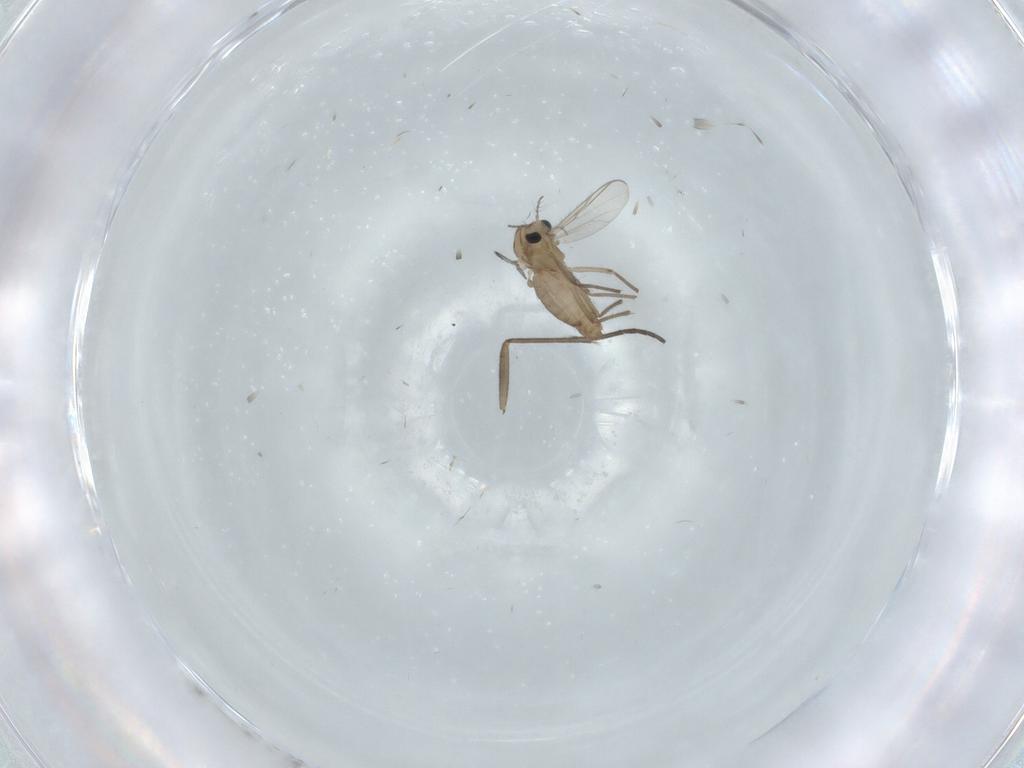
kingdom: Animalia
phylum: Arthropoda
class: Insecta
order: Diptera
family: Chironomidae
